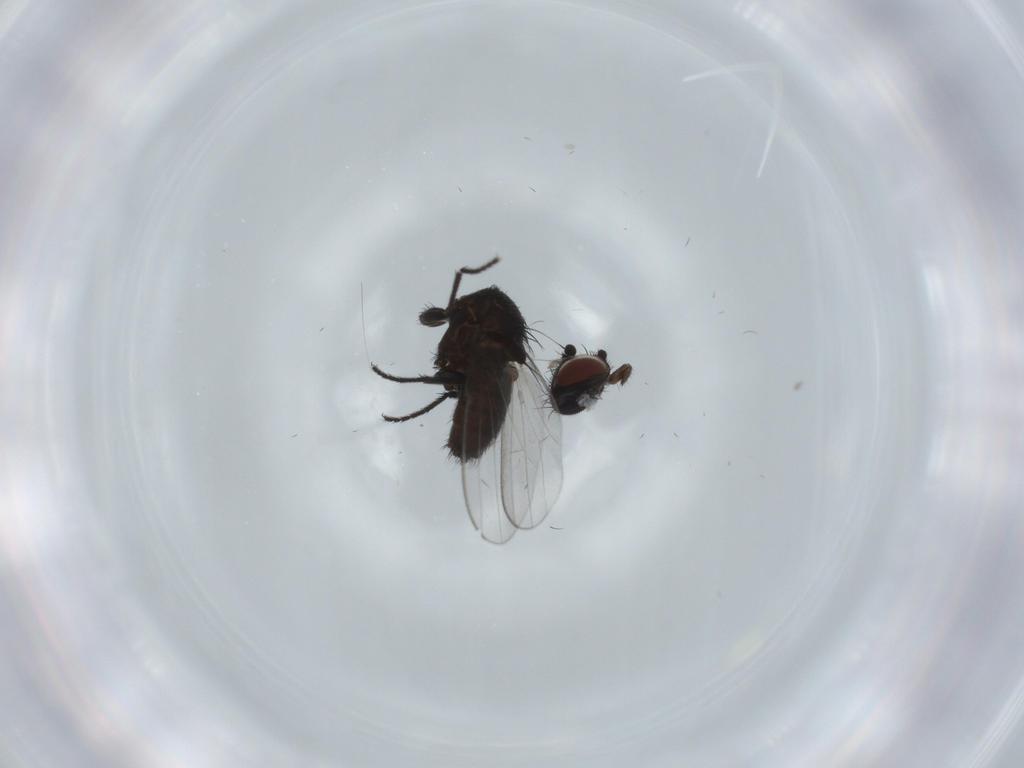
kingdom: Animalia
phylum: Arthropoda
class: Insecta
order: Diptera
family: Milichiidae
